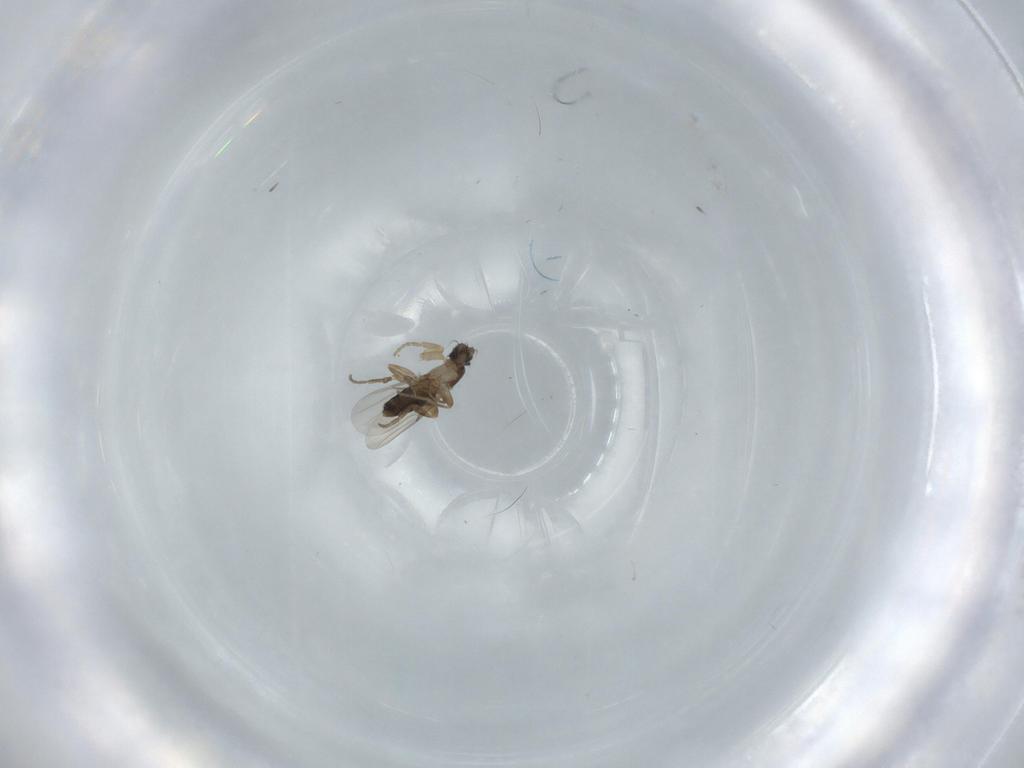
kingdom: Animalia
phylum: Arthropoda
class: Insecta
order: Diptera
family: Phoridae
